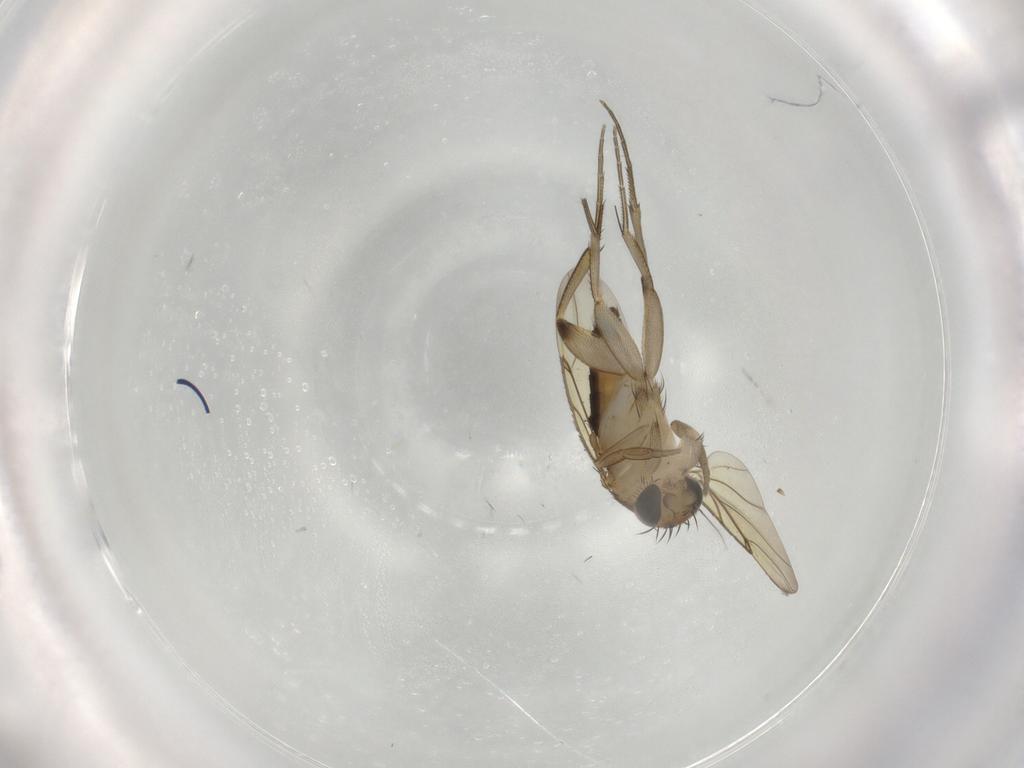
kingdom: Animalia
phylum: Arthropoda
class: Insecta
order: Diptera
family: Phoridae
